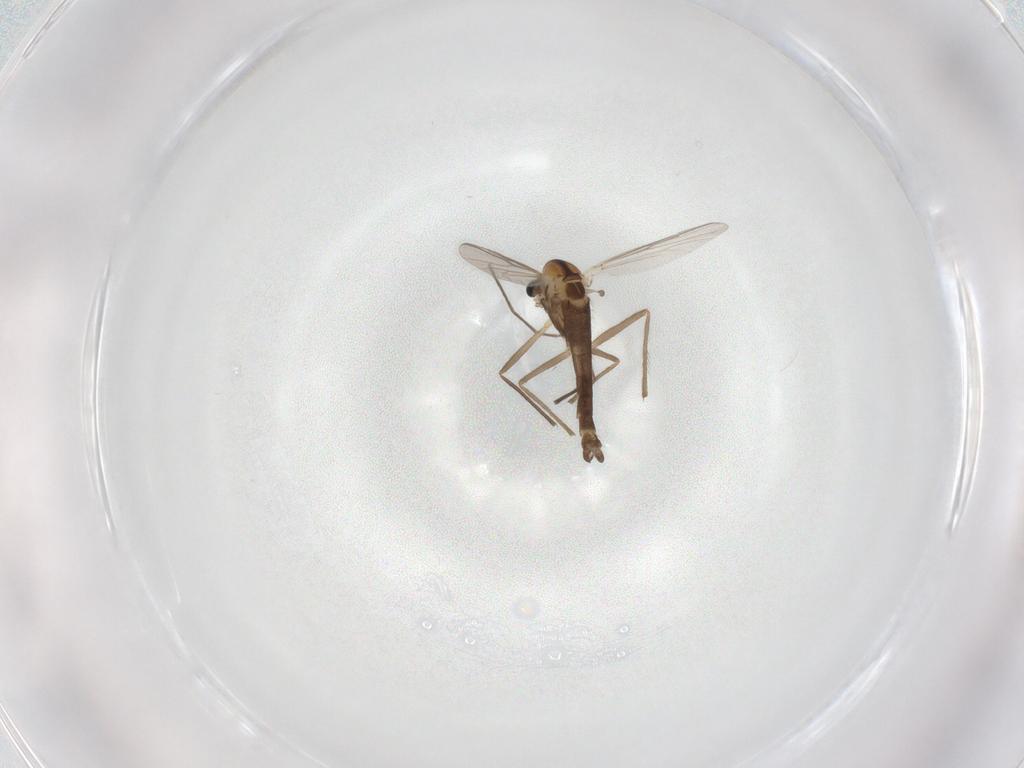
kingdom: Animalia
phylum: Arthropoda
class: Insecta
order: Diptera
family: Chironomidae
